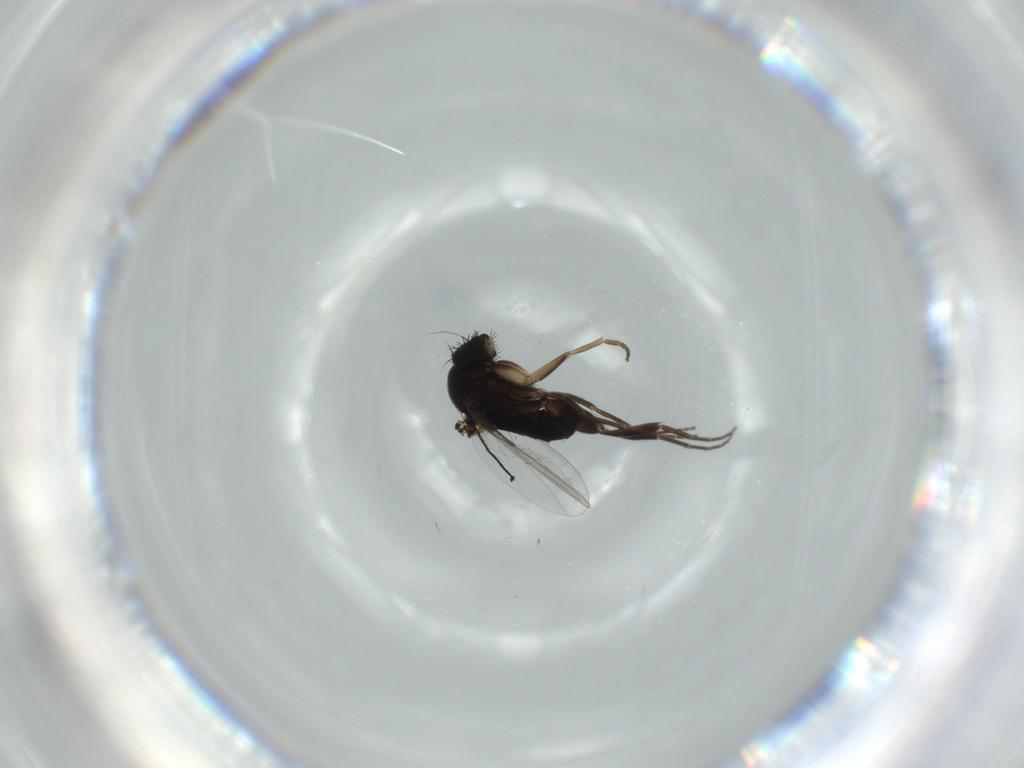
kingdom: Animalia
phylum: Arthropoda
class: Insecta
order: Diptera
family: Phoridae
